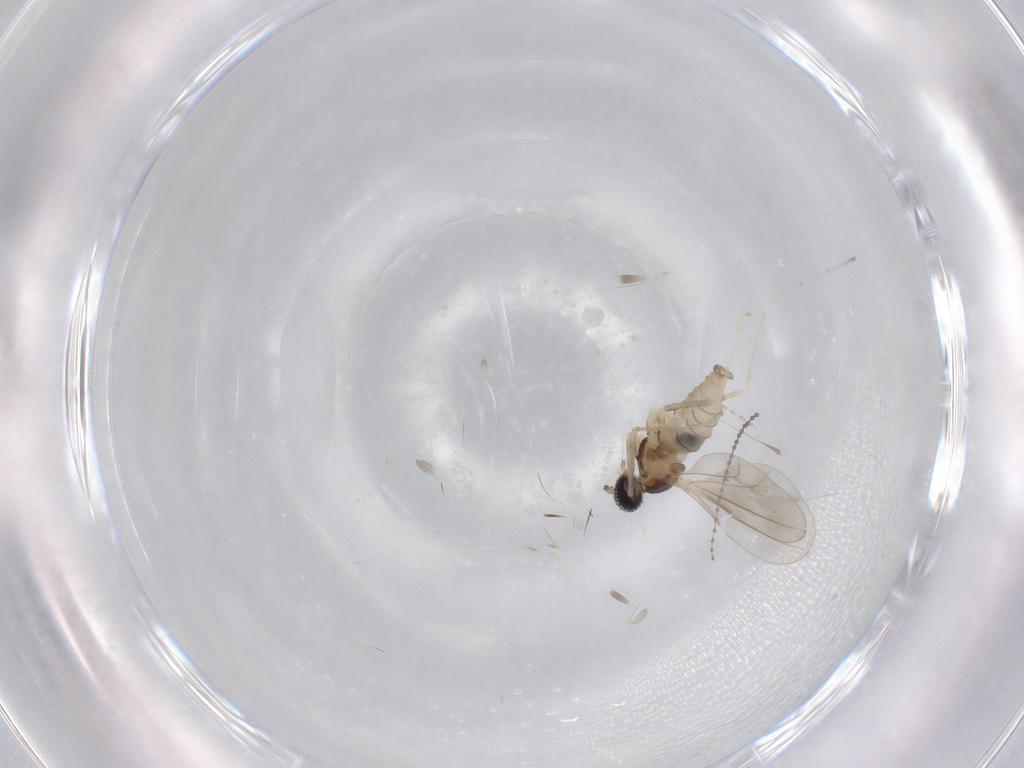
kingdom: Animalia
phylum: Arthropoda
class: Insecta
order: Diptera
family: Cecidomyiidae
